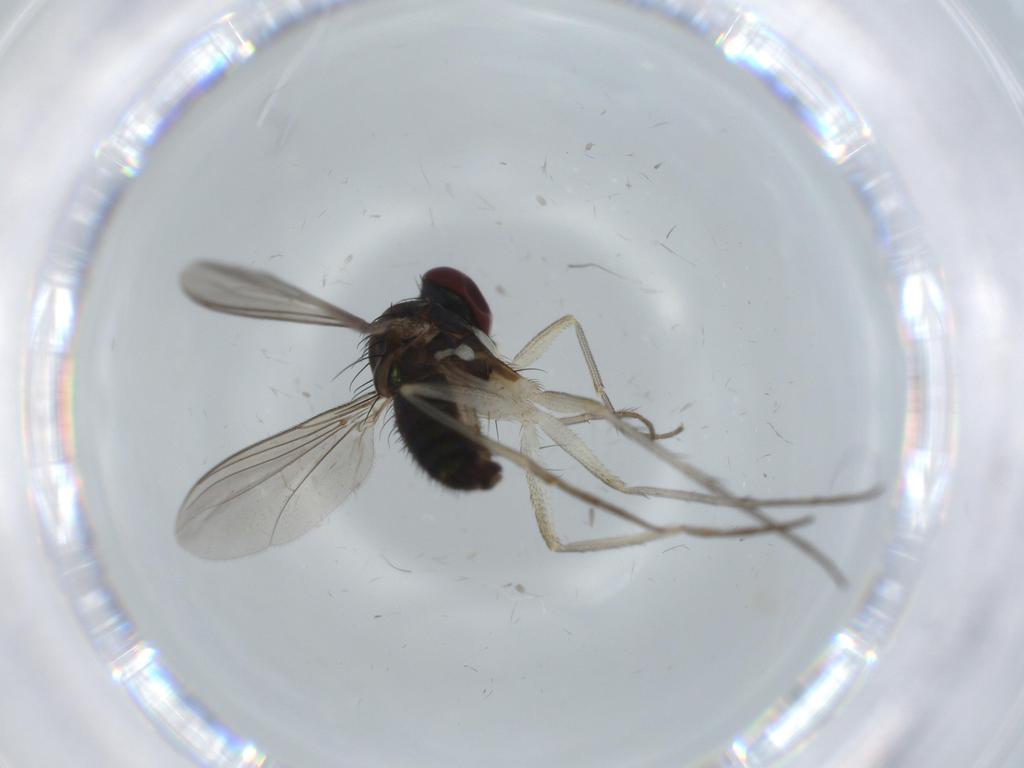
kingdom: Animalia
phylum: Arthropoda
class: Insecta
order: Diptera
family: Dolichopodidae
